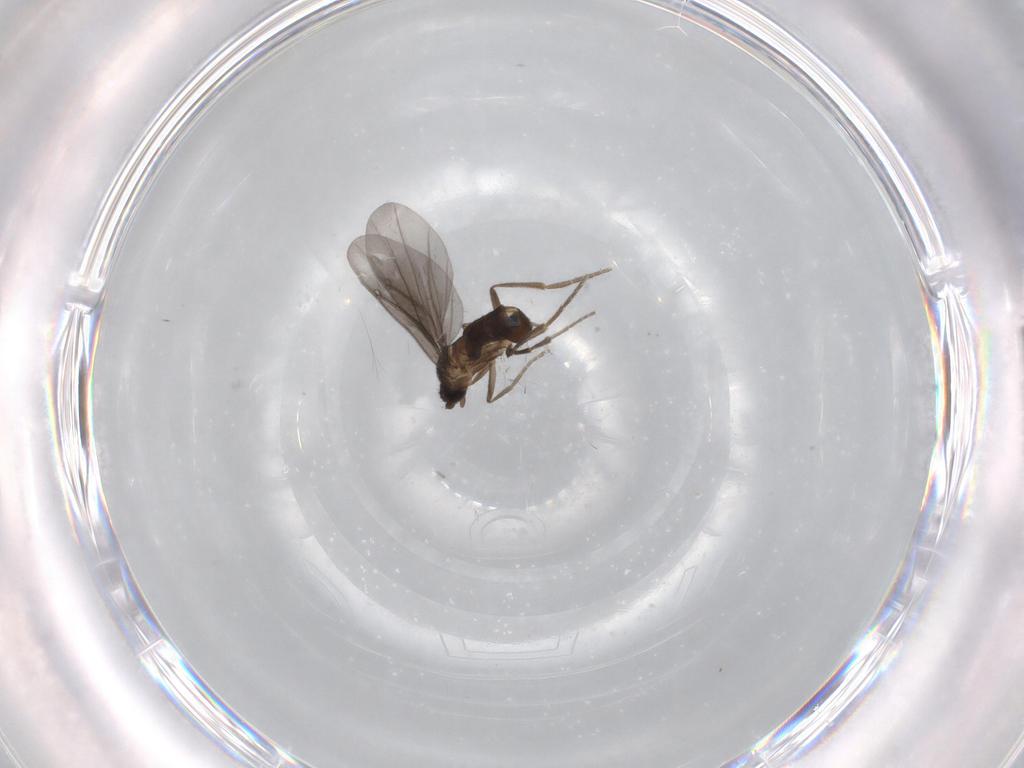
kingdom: Animalia
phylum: Arthropoda
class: Insecta
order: Diptera
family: Phoridae
